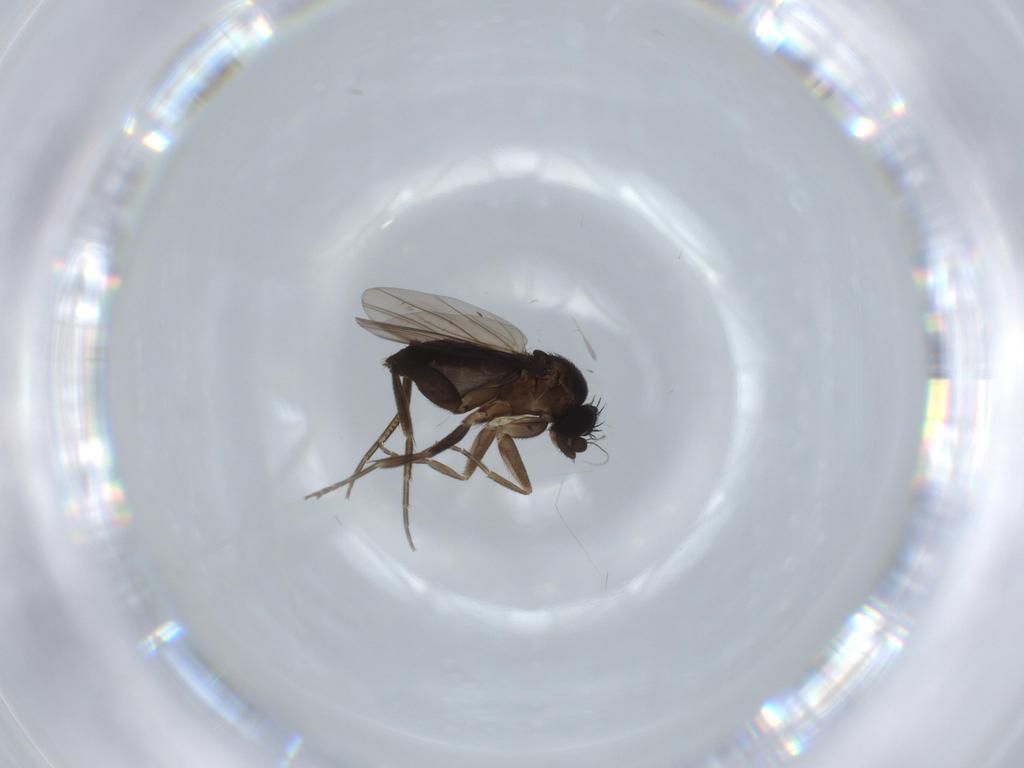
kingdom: Animalia
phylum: Arthropoda
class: Insecta
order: Diptera
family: Phoridae
